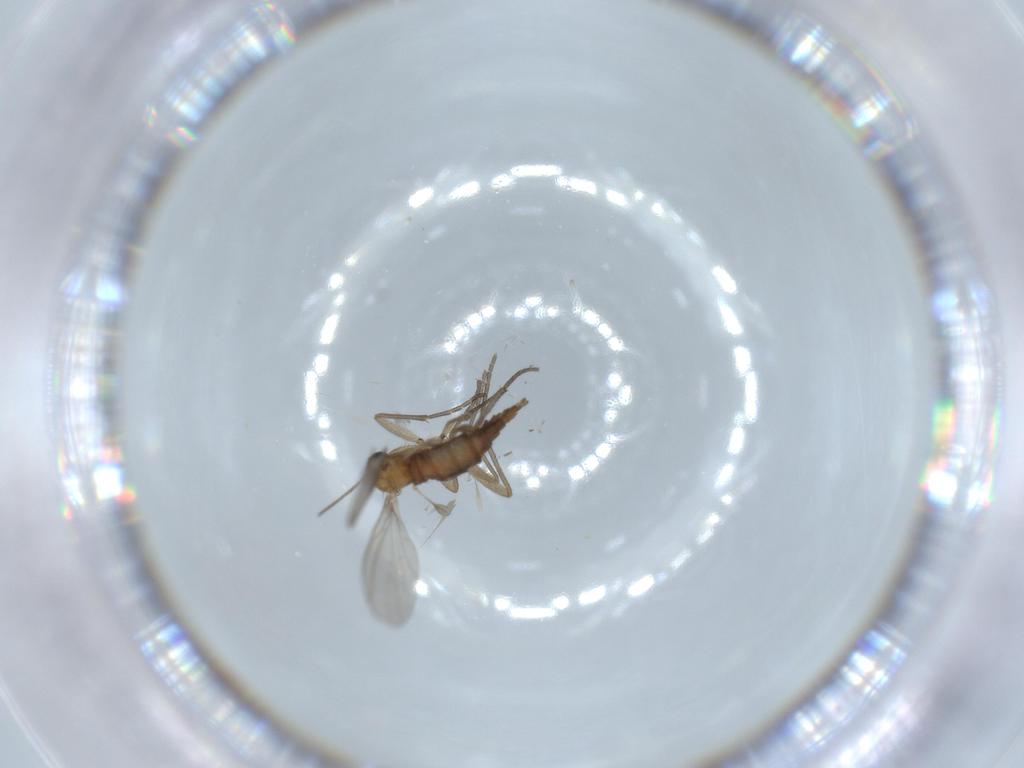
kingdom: Animalia
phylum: Arthropoda
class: Insecta
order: Diptera
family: Sciaridae
